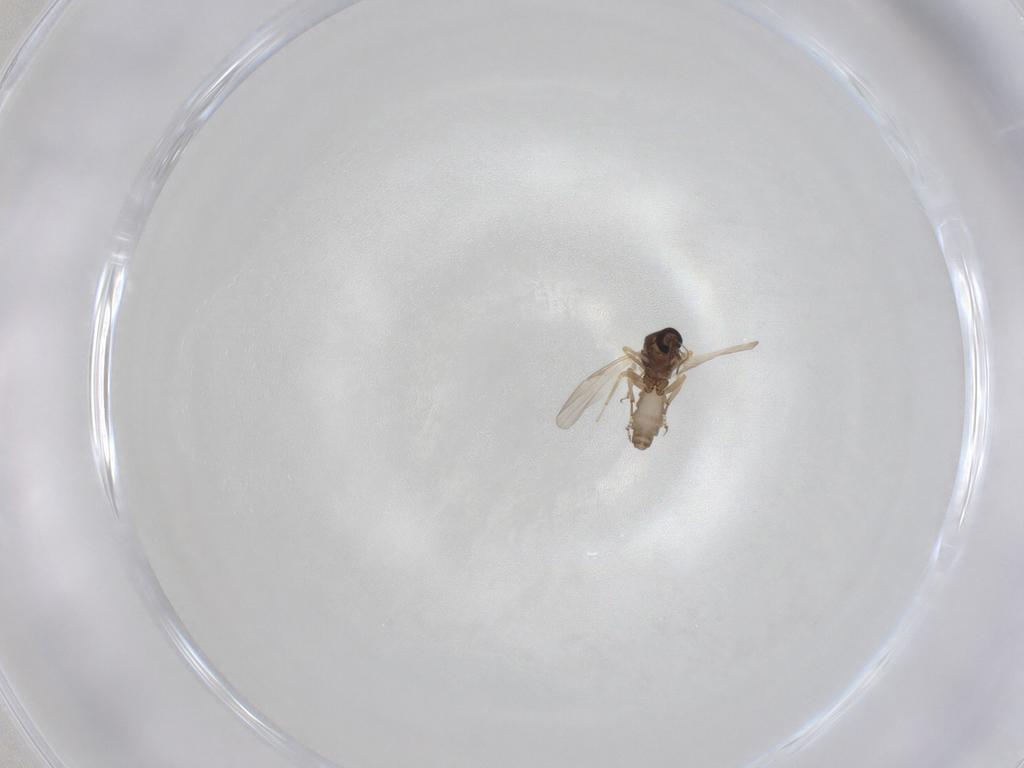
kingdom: Animalia
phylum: Arthropoda
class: Insecta
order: Diptera
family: Ceratopogonidae
